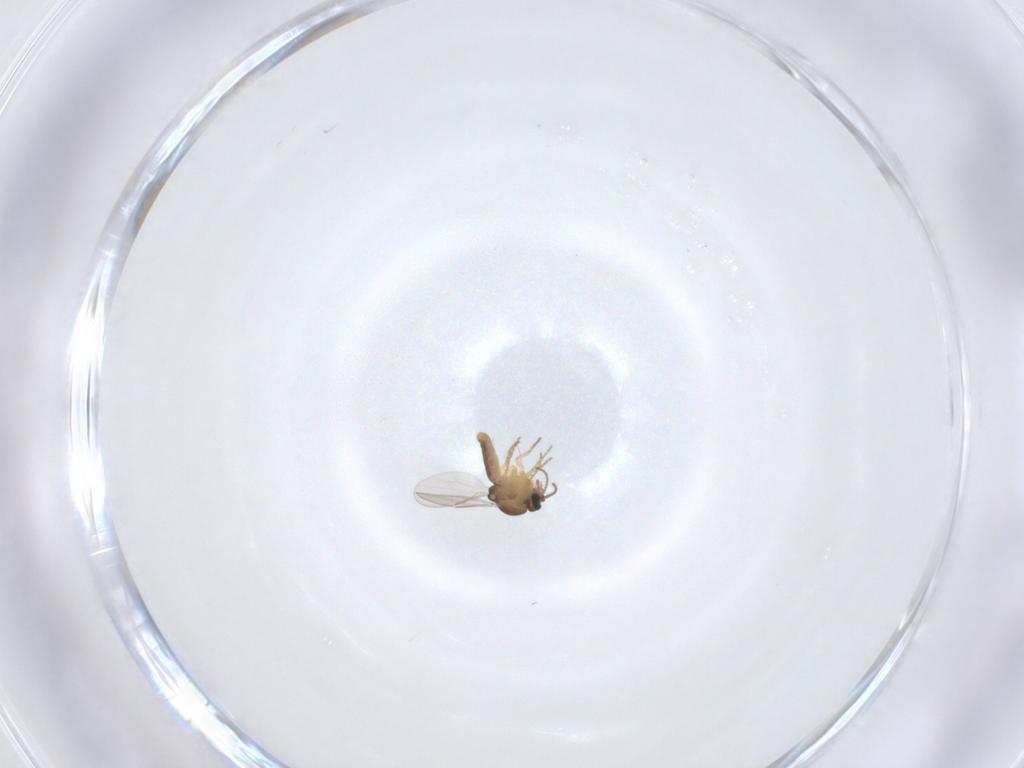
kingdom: Animalia
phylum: Arthropoda
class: Insecta
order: Diptera
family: Ceratopogonidae
